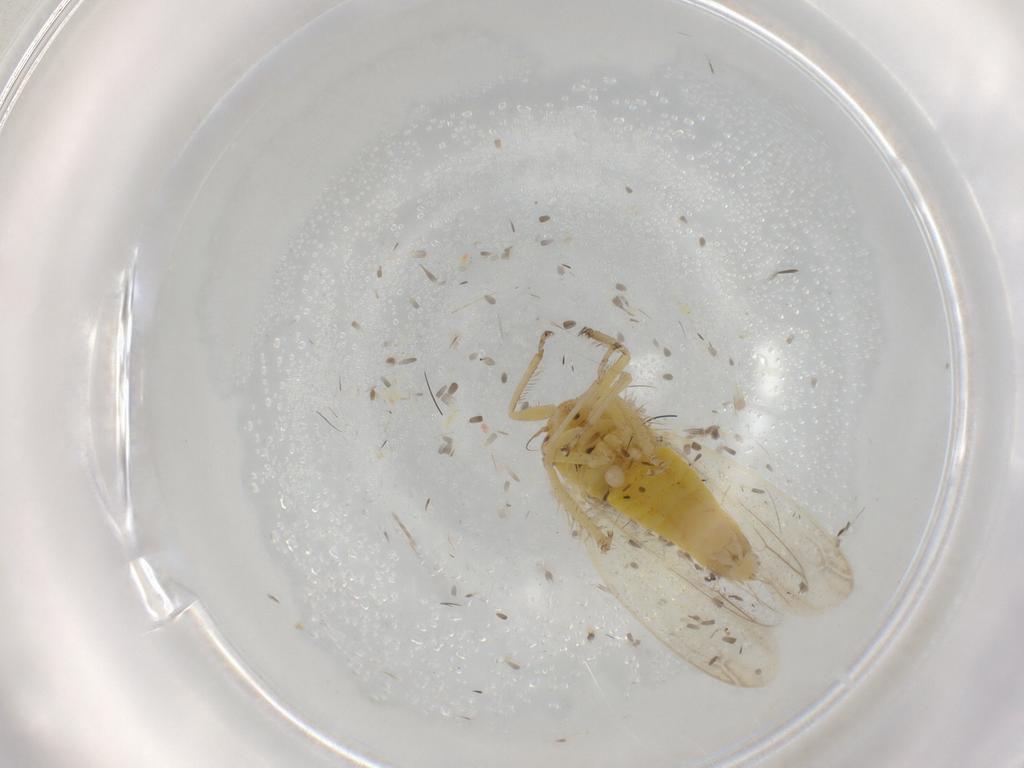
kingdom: Animalia
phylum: Arthropoda
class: Insecta
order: Hemiptera
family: Cicadellidae
